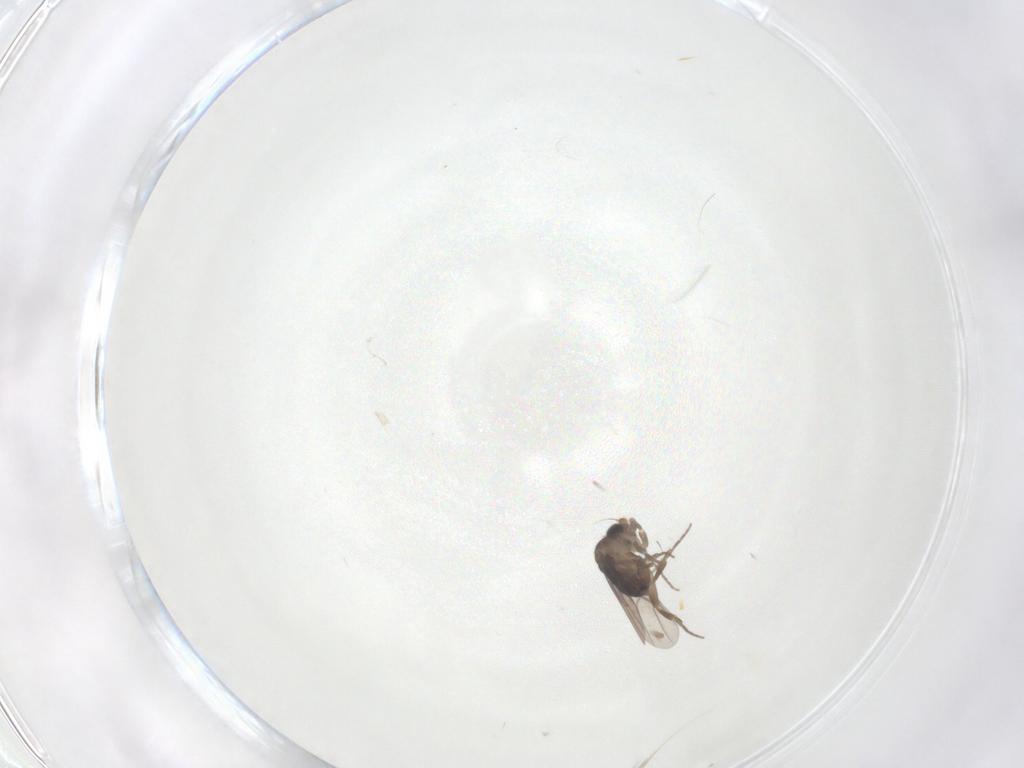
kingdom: Animalia
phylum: Arthropoda
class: Insecta
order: Diptera
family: Phoridae
